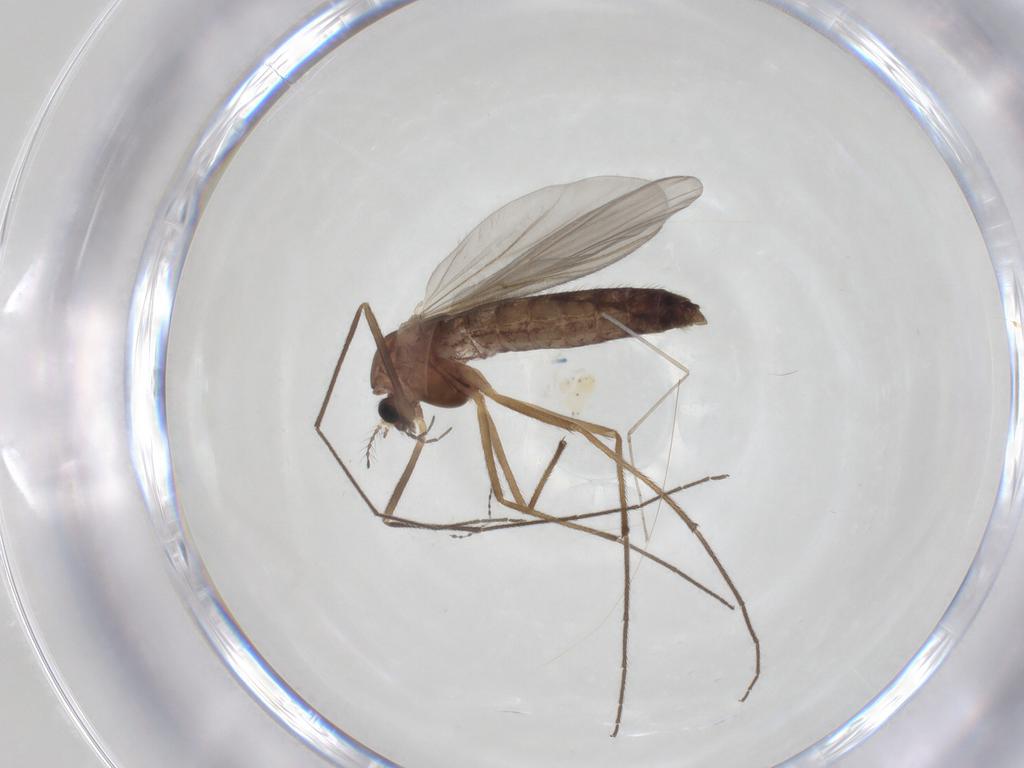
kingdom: Animalia
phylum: Arthropoda
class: Insecta
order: Diptera
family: Chironomidae
